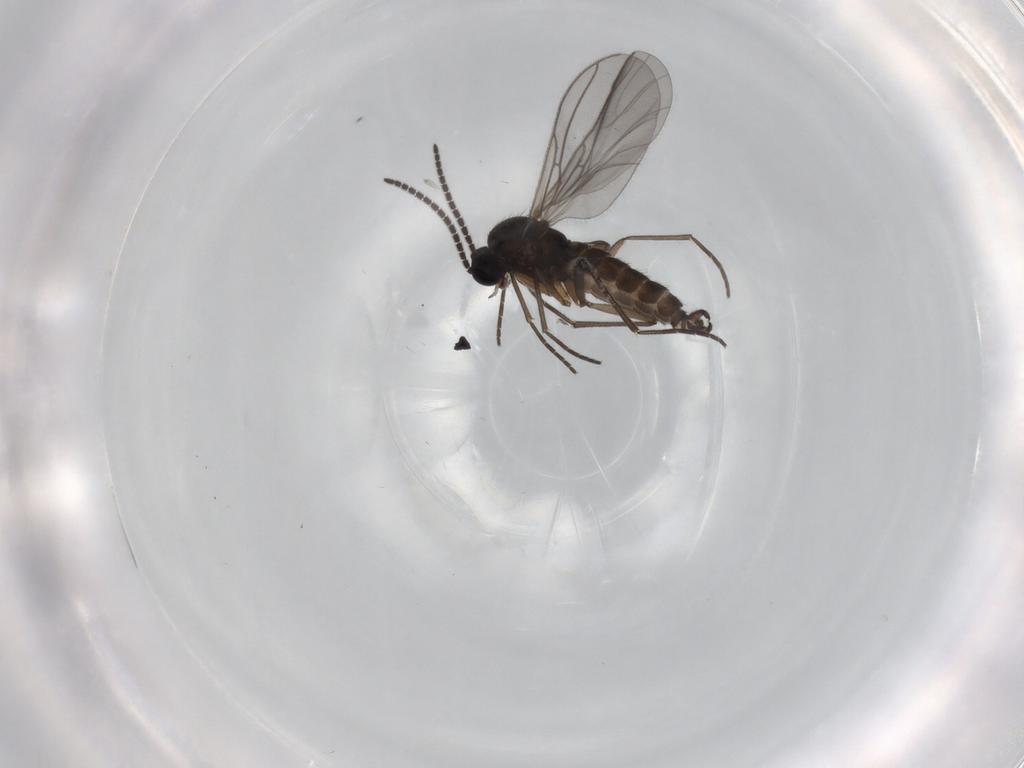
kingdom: Animalia
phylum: Arthropoda
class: Insecta
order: Diptera
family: Sciaridae
